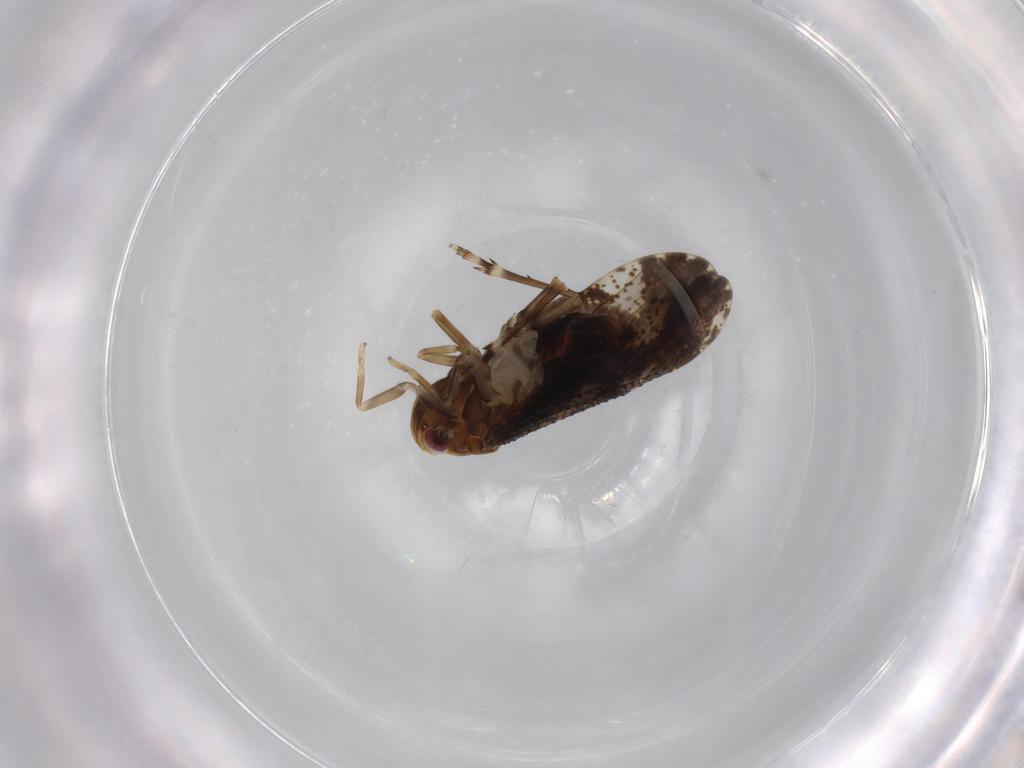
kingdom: Animalia
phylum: Arthropoda
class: Insecta
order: Hemiptera
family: Delphacidae
